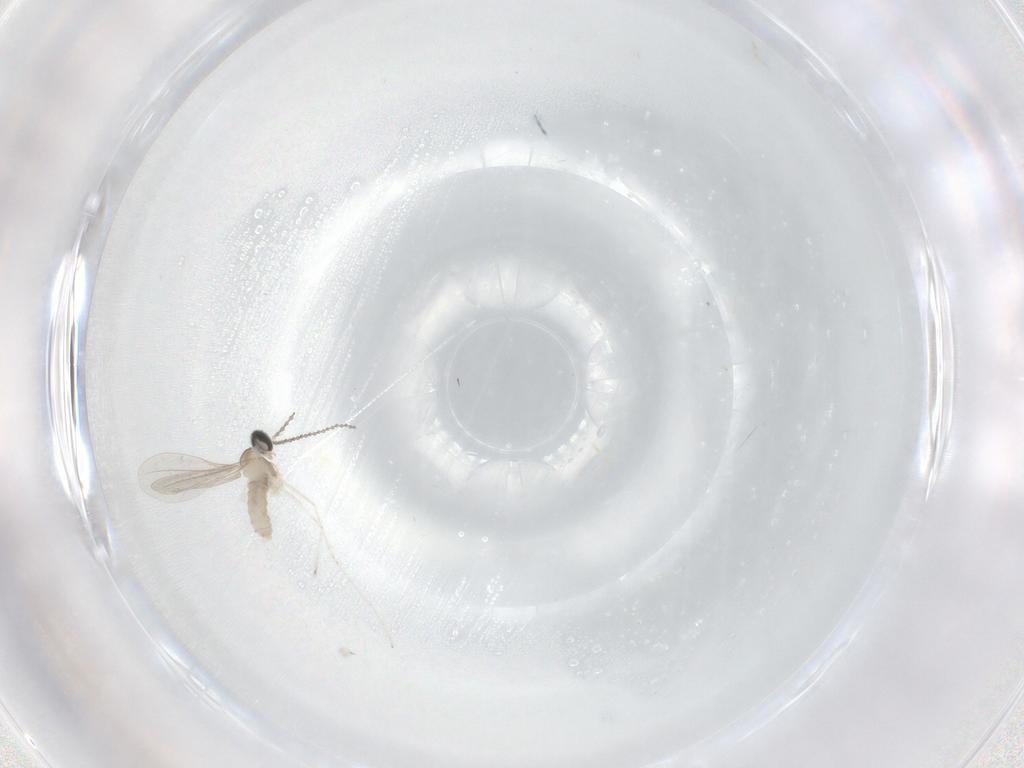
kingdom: Animalia
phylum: Arthropoda
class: Insecta
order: Diptera
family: Cecidomyiidae
